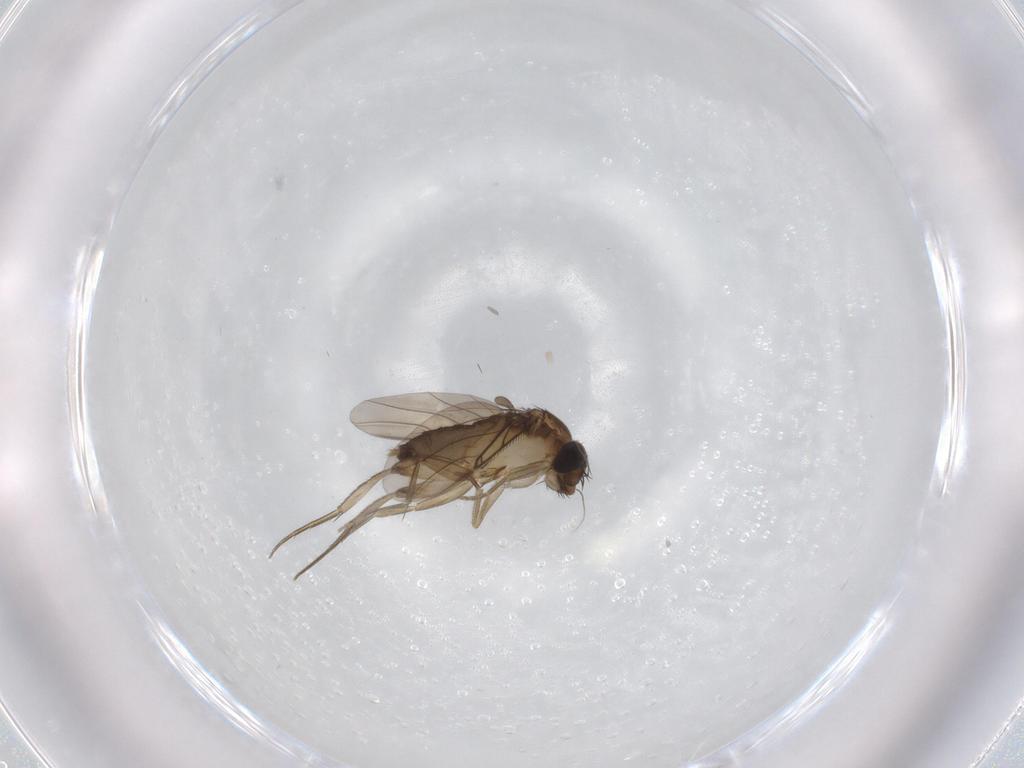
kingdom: Animalia
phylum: Arthropoda
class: Insecta
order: Diptera
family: Phoridae
